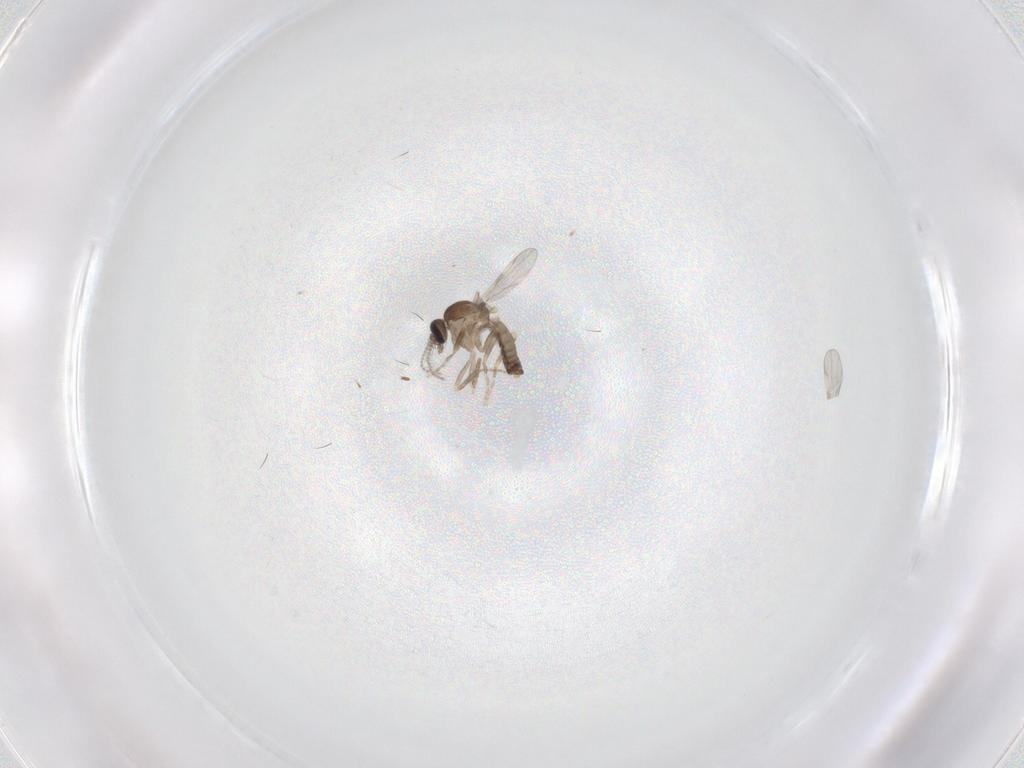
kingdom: Animalia
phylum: Arthropoda
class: Insecta
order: Diptera
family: Ceratopogonidae
